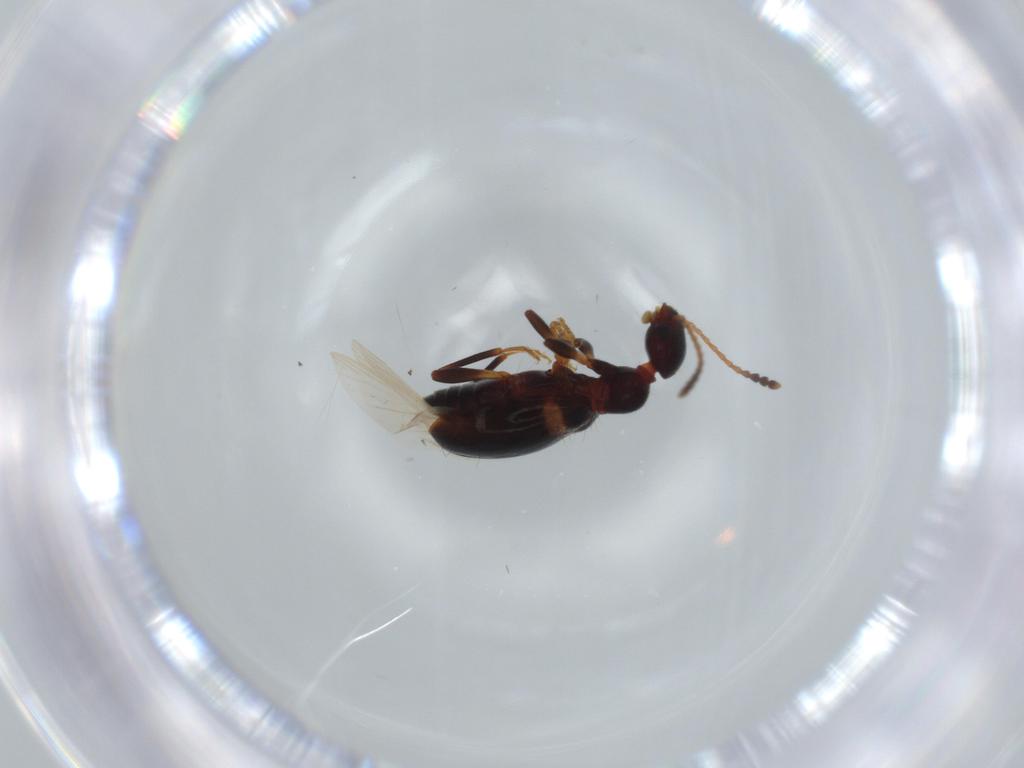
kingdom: Animalia
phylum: Arthropoda
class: Insecta
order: Coleoptera
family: Anthicidae
